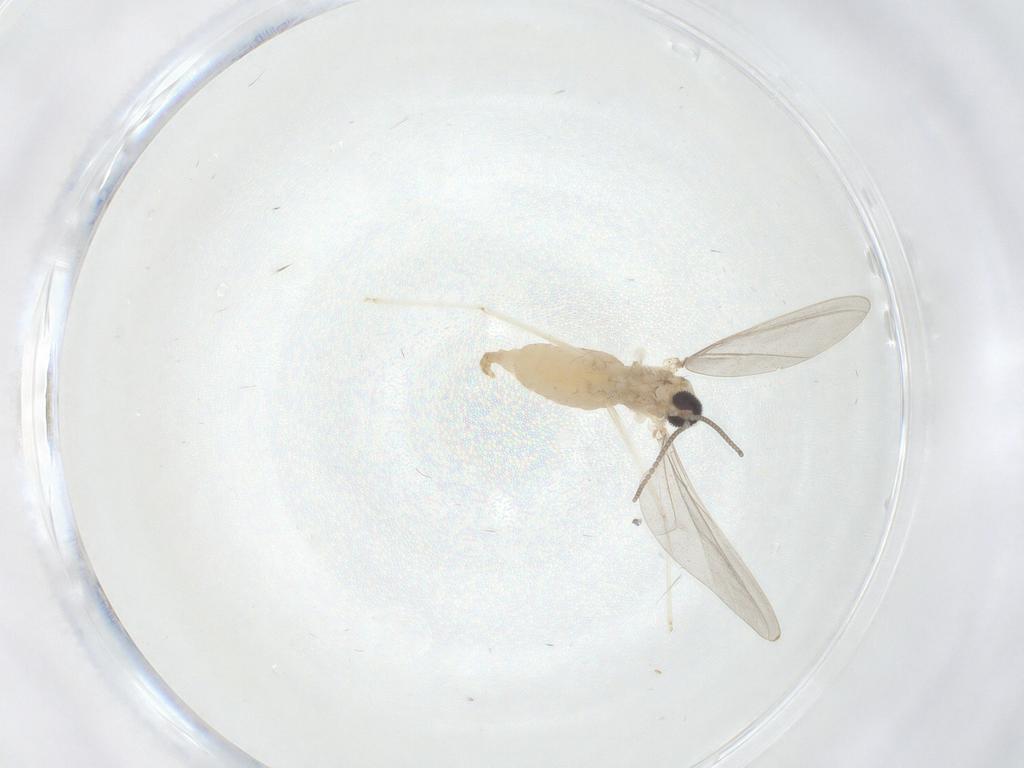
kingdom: Animalia
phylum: Arthropoda
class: Insecta
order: Diptera
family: Cecidomyiidae
